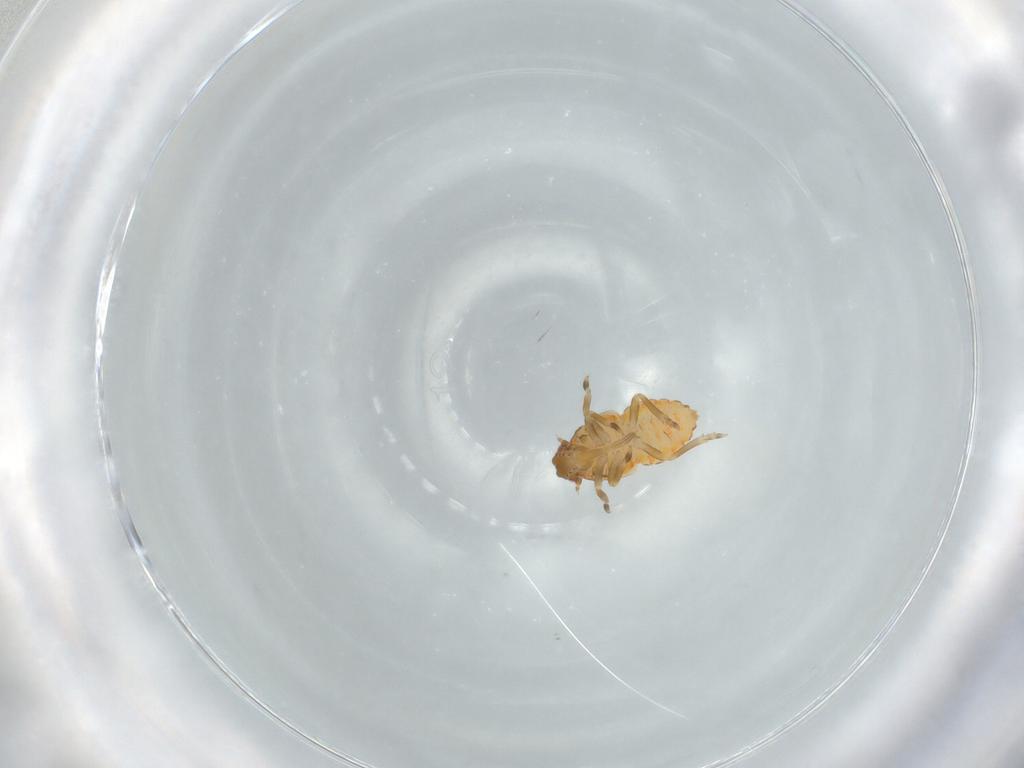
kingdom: Animalia
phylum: Arthropoda
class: Insecta
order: Hemiptera
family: Flatidae
